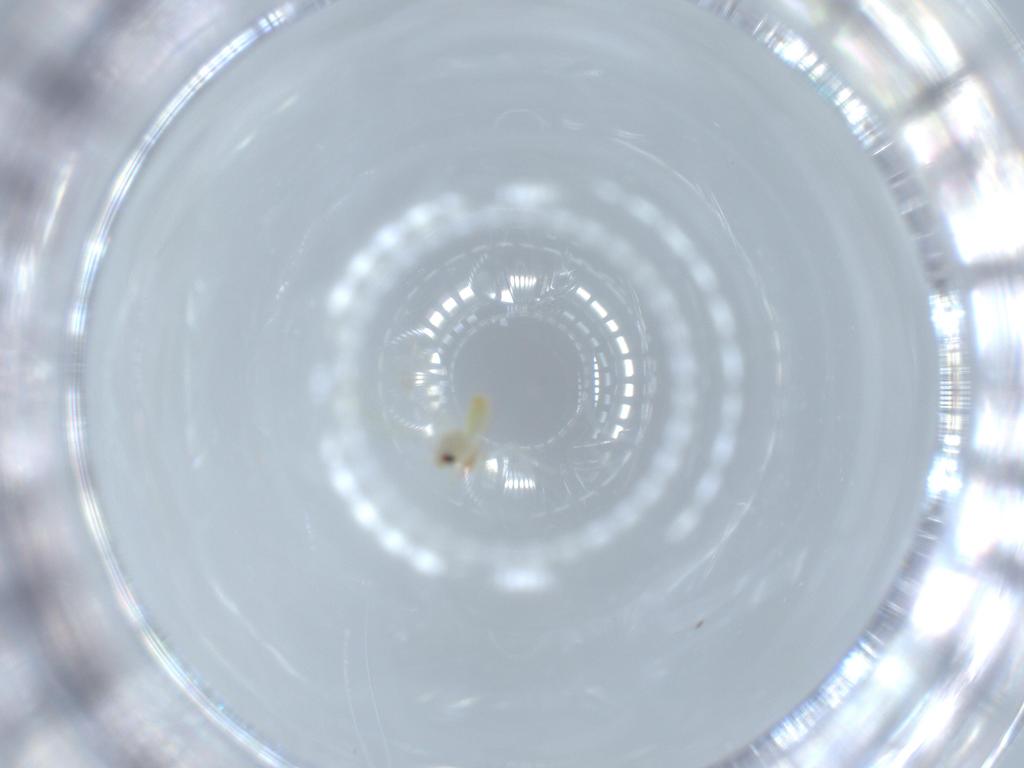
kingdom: Animalia
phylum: Arthropoda
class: Insecta
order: Hemiptera
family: Aleyrodidae
